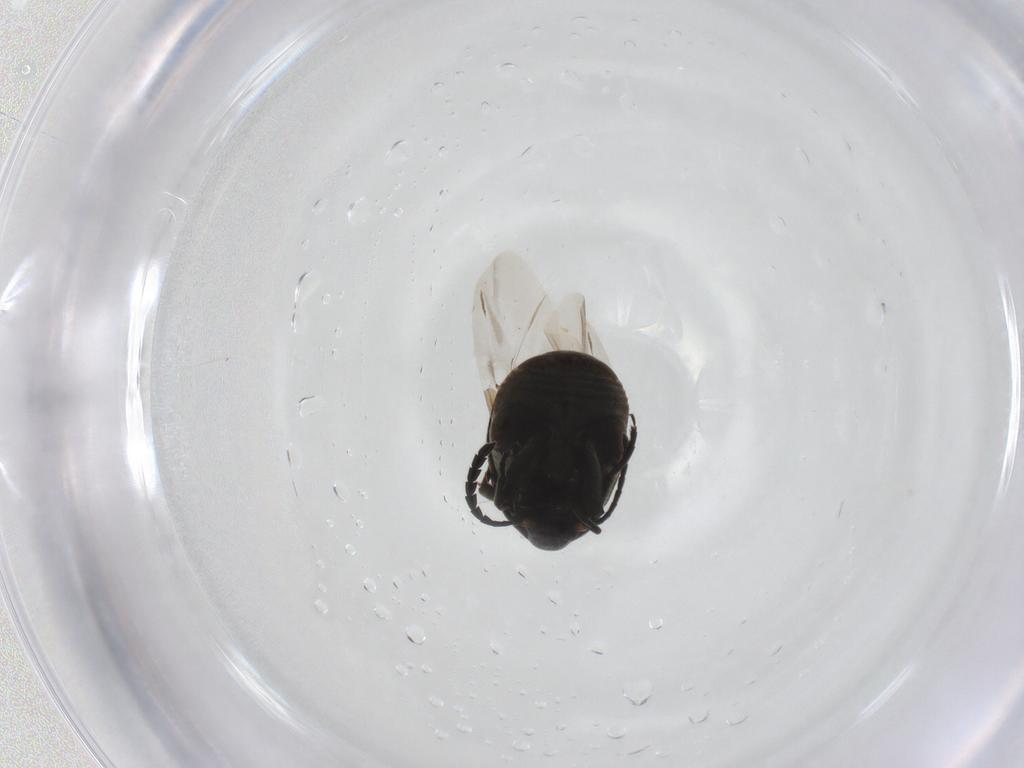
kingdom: Animalia
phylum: Arthropoda
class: Insecta
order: Coleoptera
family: Chrysomelidae
